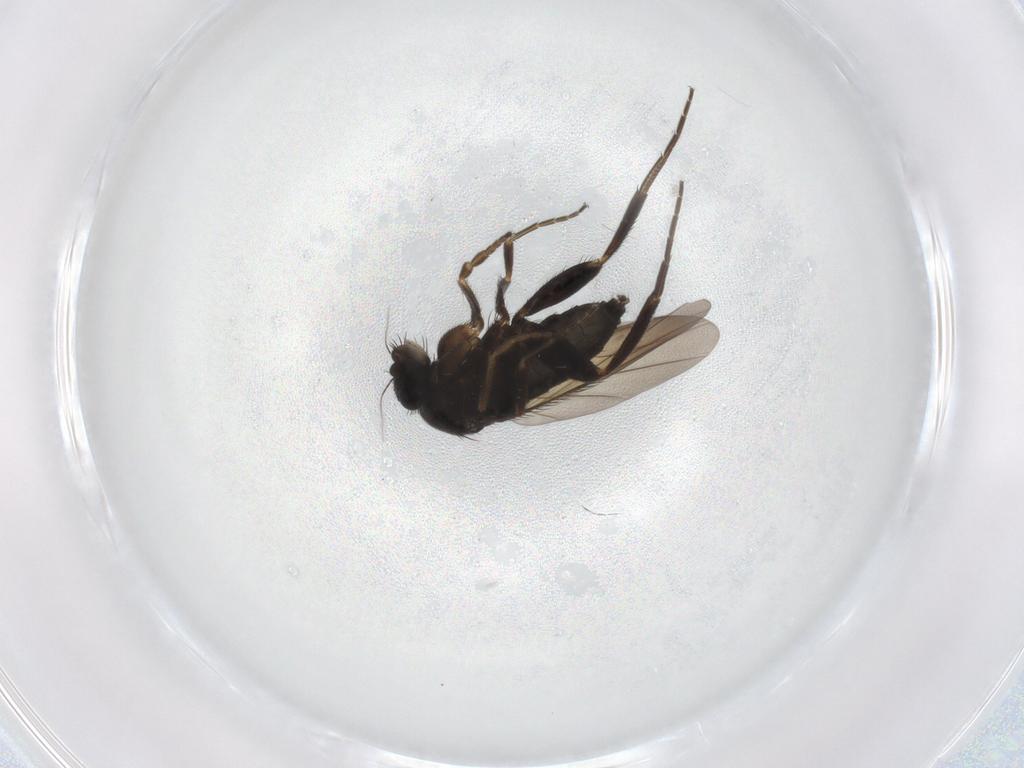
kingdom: Animalia
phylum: Arthropoda
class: Insecta
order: Diptera
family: Phoridae
